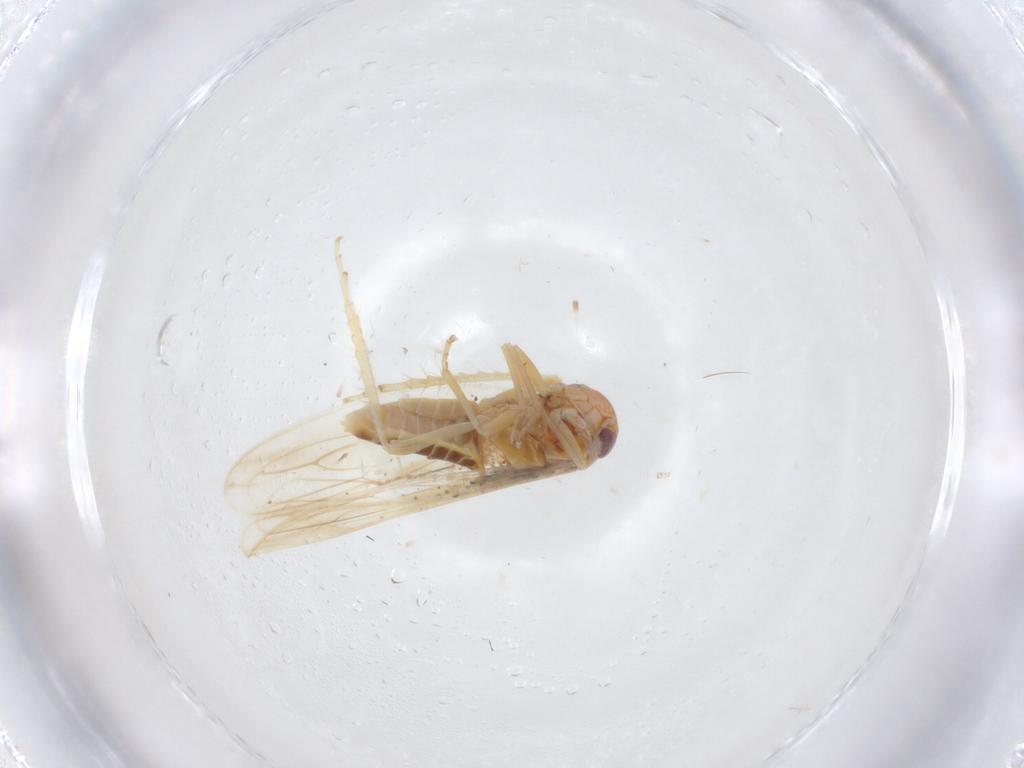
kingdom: Animalia
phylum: Arthropoda
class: Insecta
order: Hemiptera
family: Cicadellidae
